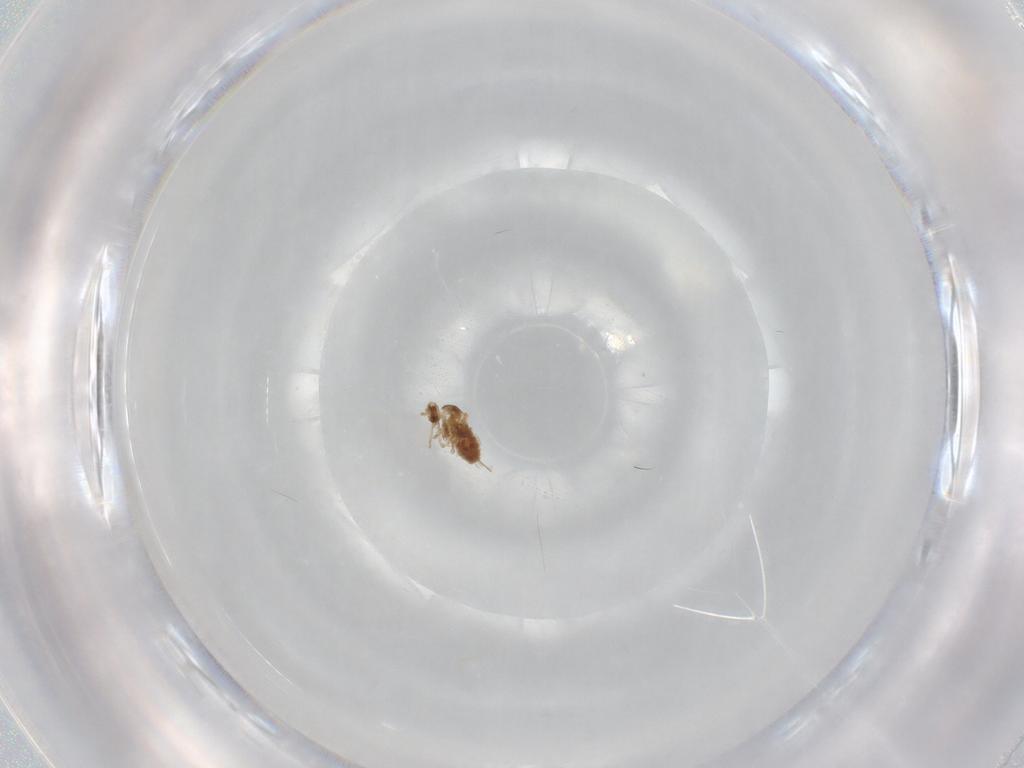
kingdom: Animalia
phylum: Arthropoda
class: Insecta
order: Diptera
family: Cecidomyiidae
